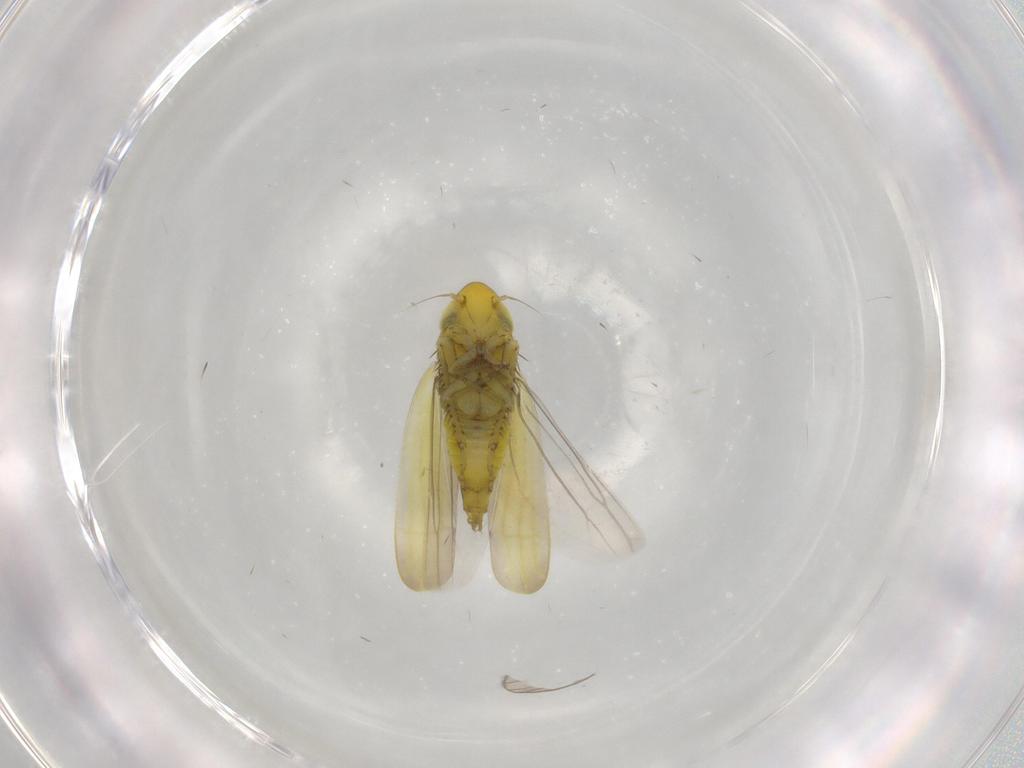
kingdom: Animalia
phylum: Arthropoda
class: Insecta
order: Hemiptera
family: Cicadellidae
